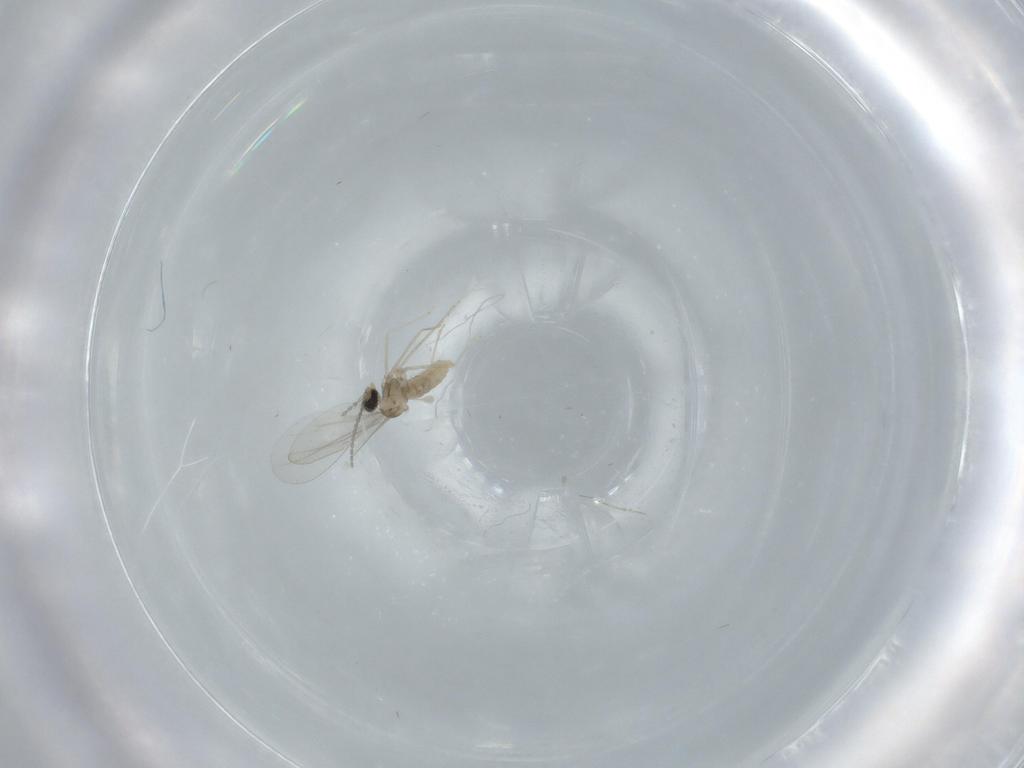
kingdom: Animalia
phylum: Arthropoda
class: Insecta
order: Diptera
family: Cecidomyiidae
